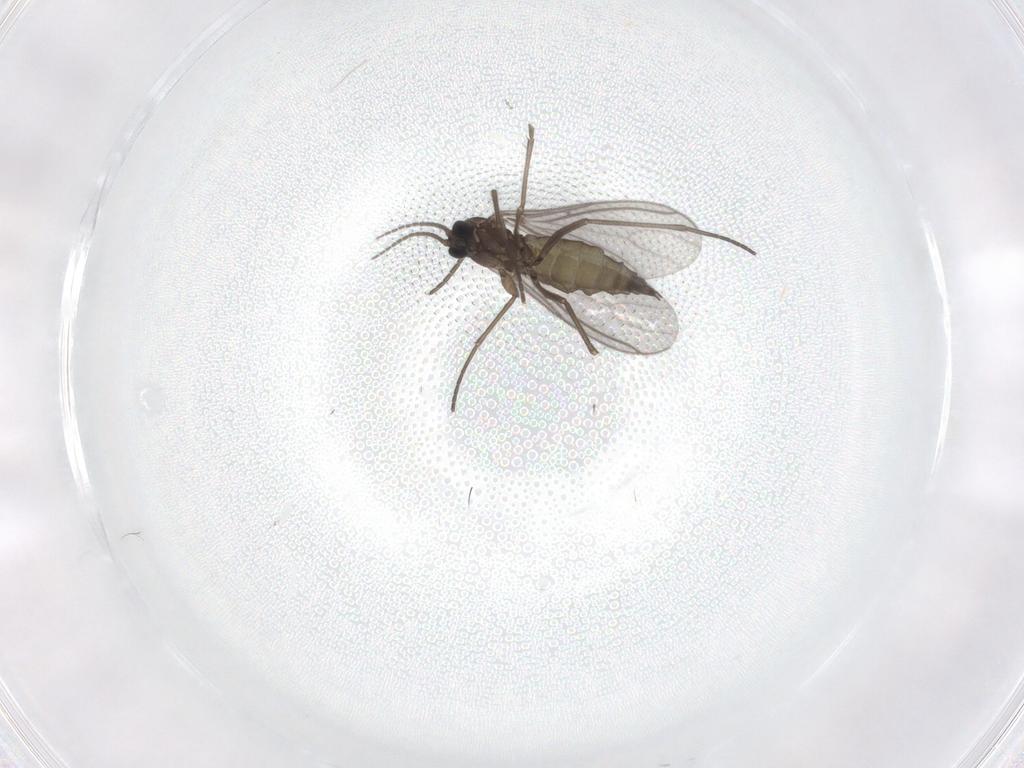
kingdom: Animalia
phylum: Arthropoda
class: Insecta
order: Diptera
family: Sciaridae
